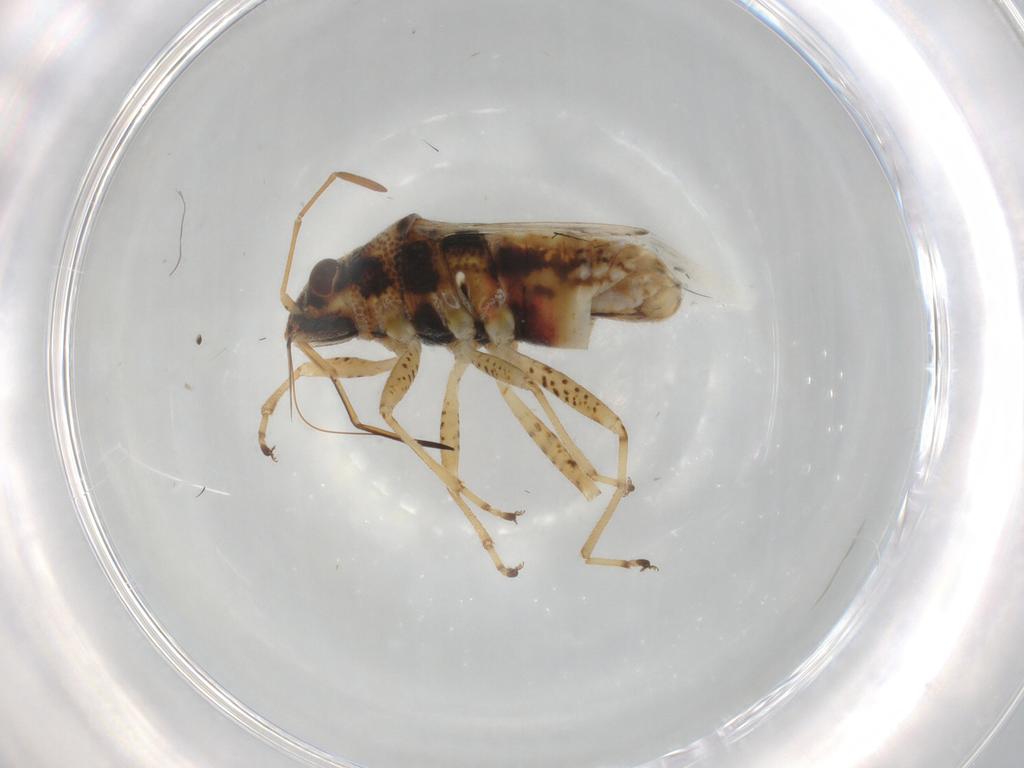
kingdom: Animalia
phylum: Arthropoda
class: Insecta
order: Hemiptera
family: Lygaeidae
